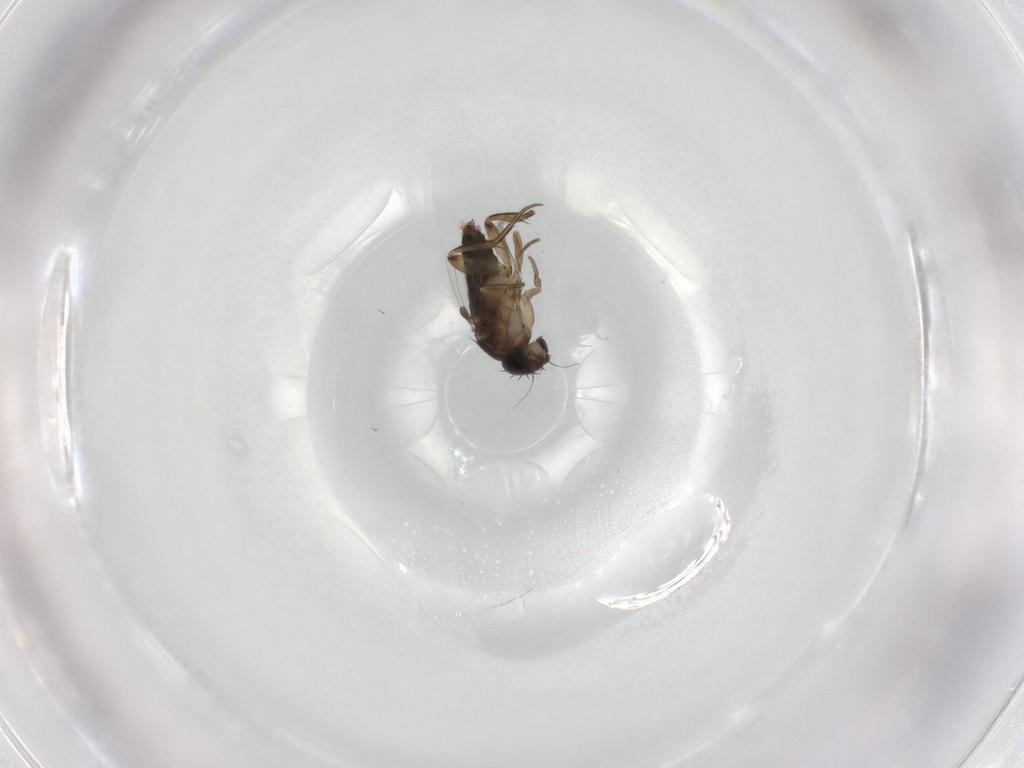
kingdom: Animalia
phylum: Arthropoda
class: Insecta
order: Diptera
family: Phoridae
